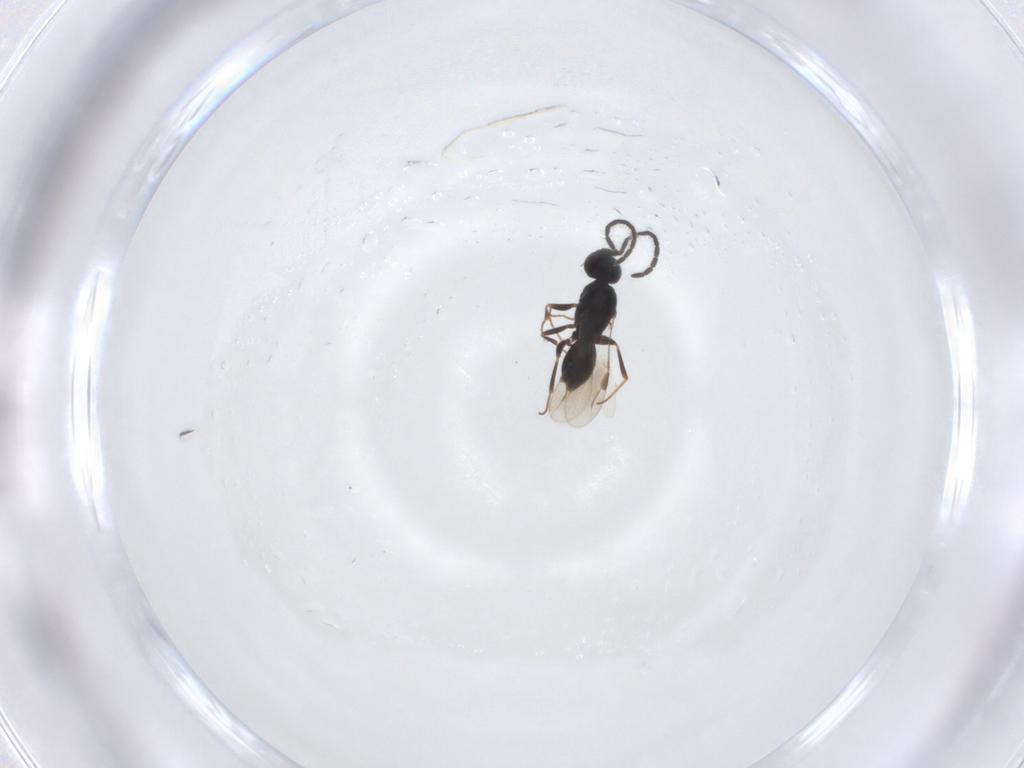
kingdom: Animalia
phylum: Arthropoda
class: Insecta
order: Hymenoptera
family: Megaspilidae
